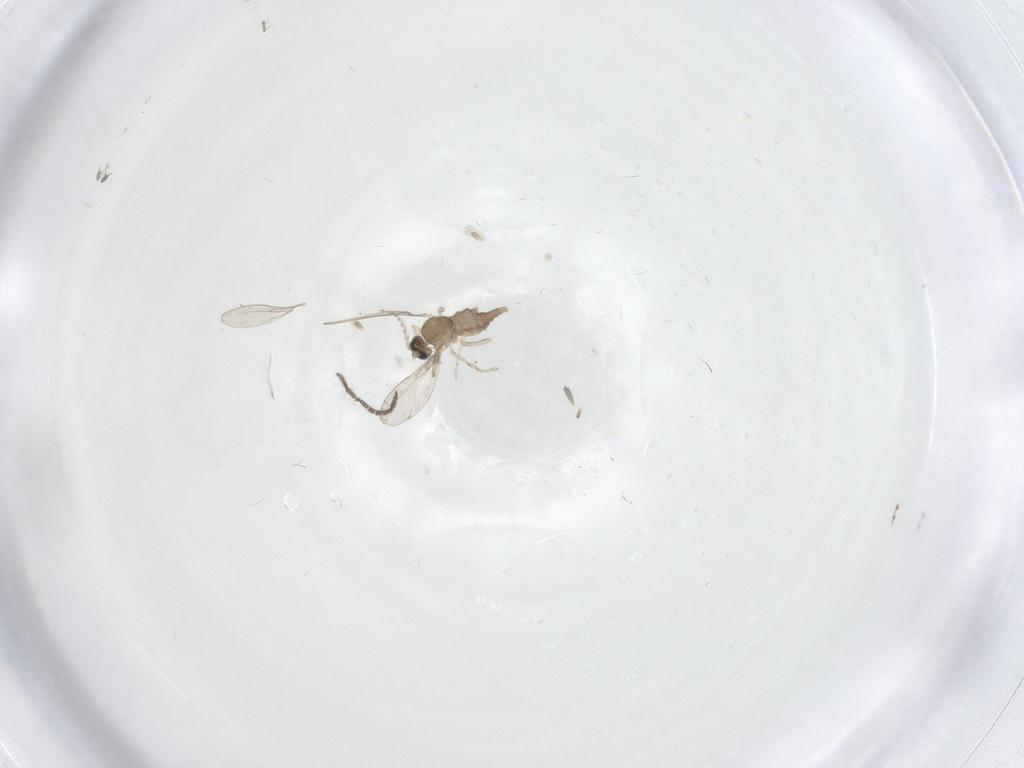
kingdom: Animalia
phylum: Arthropoda
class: Insecta
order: Diptera
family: Cecidomyiidae
